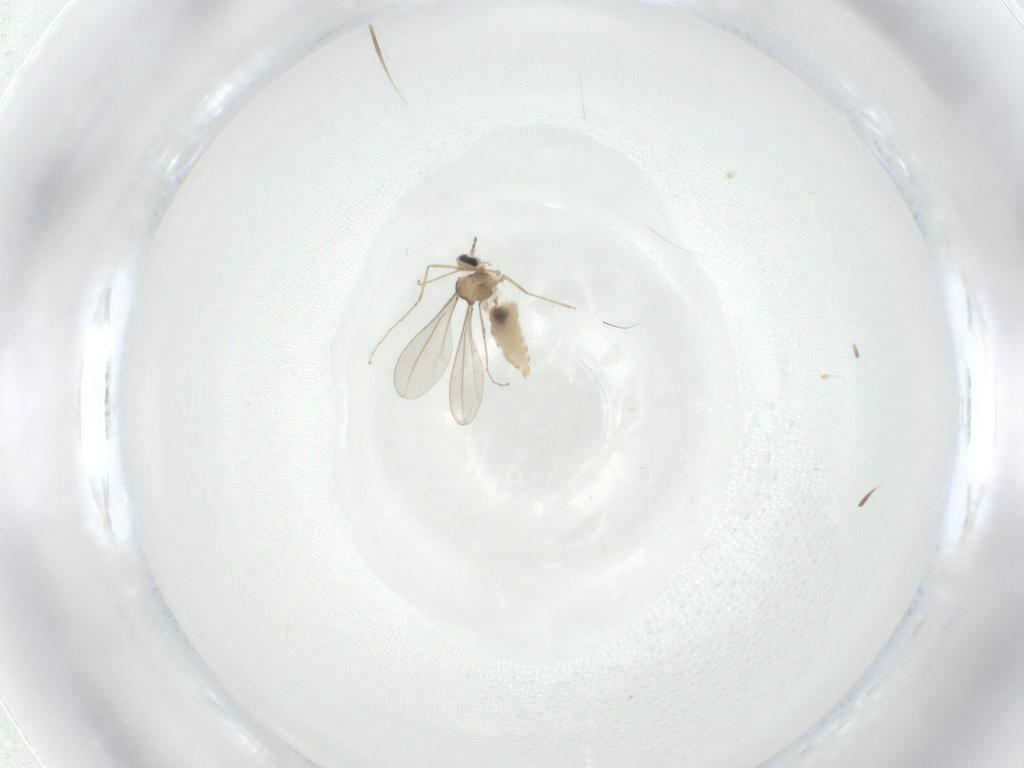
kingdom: Animalia
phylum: Arthropoda
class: Insecta
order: Diptera
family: Cecidomyiidae
